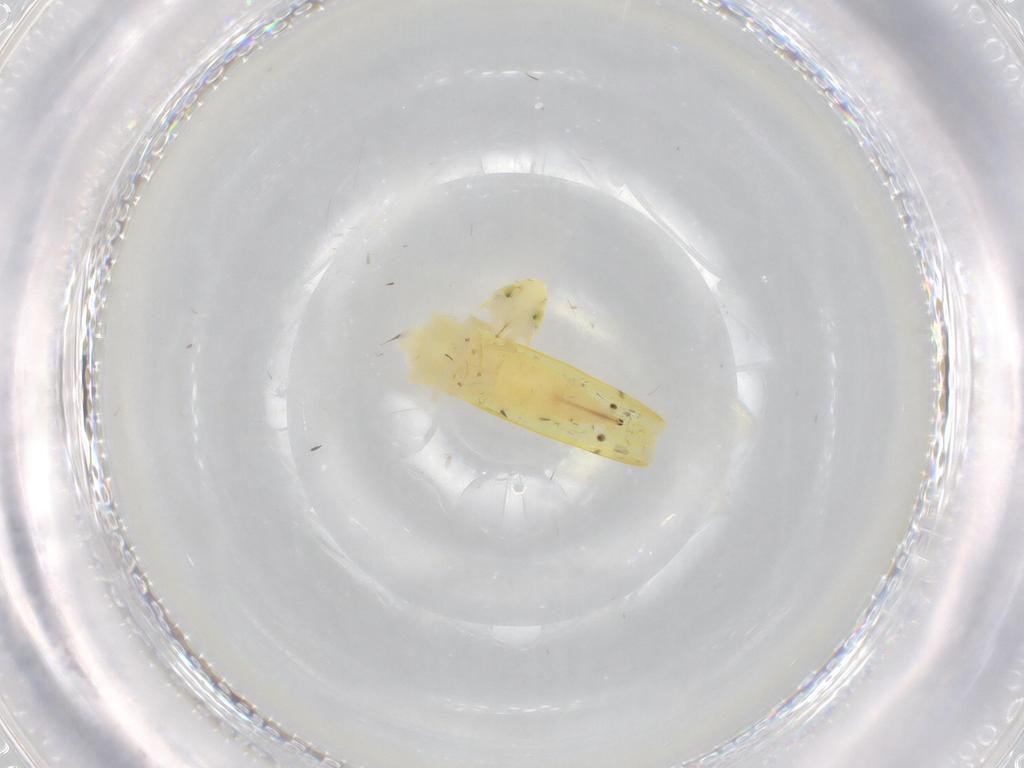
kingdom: Animalia
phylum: Arthropoda
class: Insecta
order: Hemiptera
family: Cicadellidae
